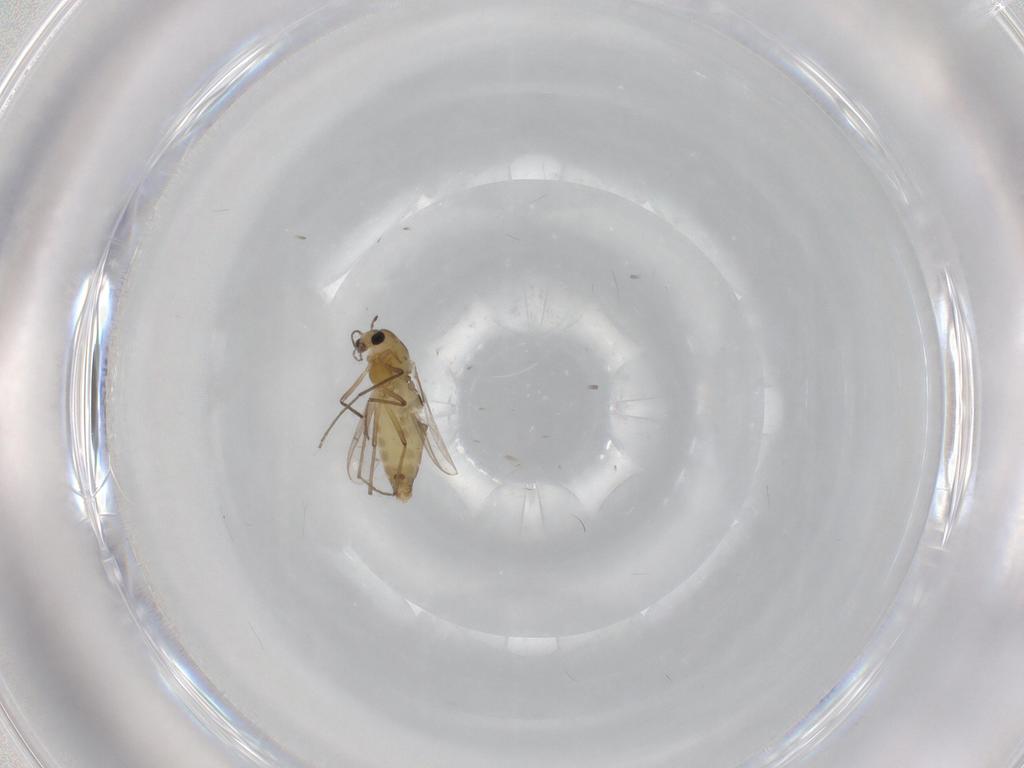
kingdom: Animalia
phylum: Arthropoda
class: Insecta
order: Diptera
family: Chironomidae
